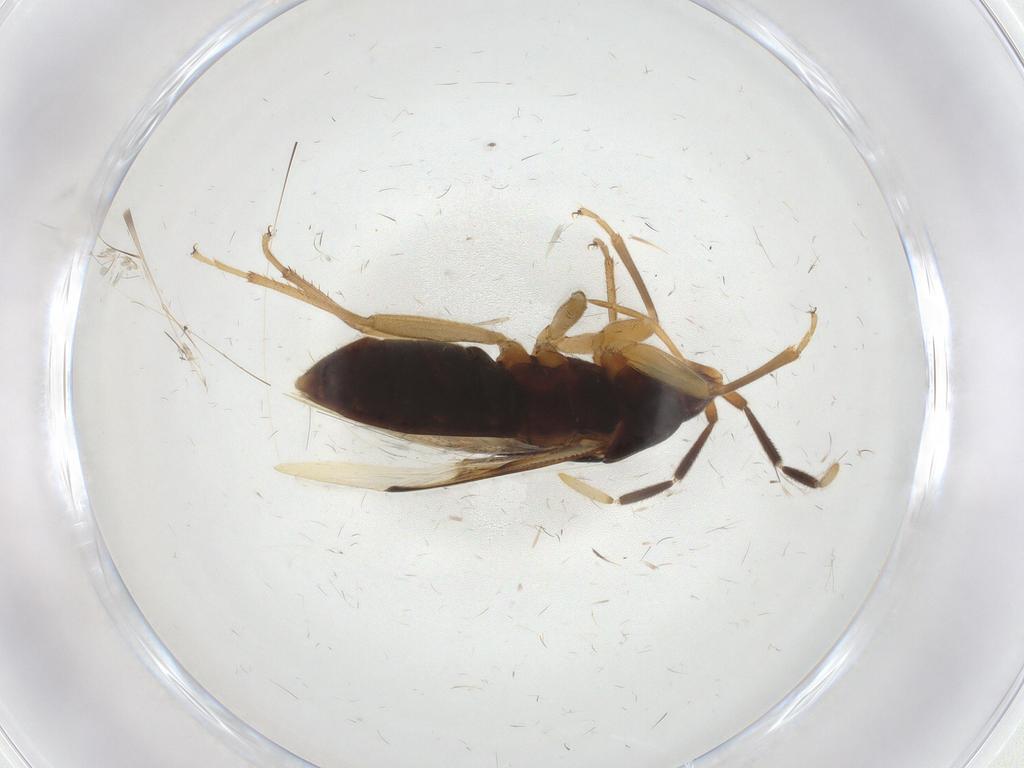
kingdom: Animalia
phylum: Arthropoda
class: Insecta
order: Hemiptera
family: Rhyparochromidae
